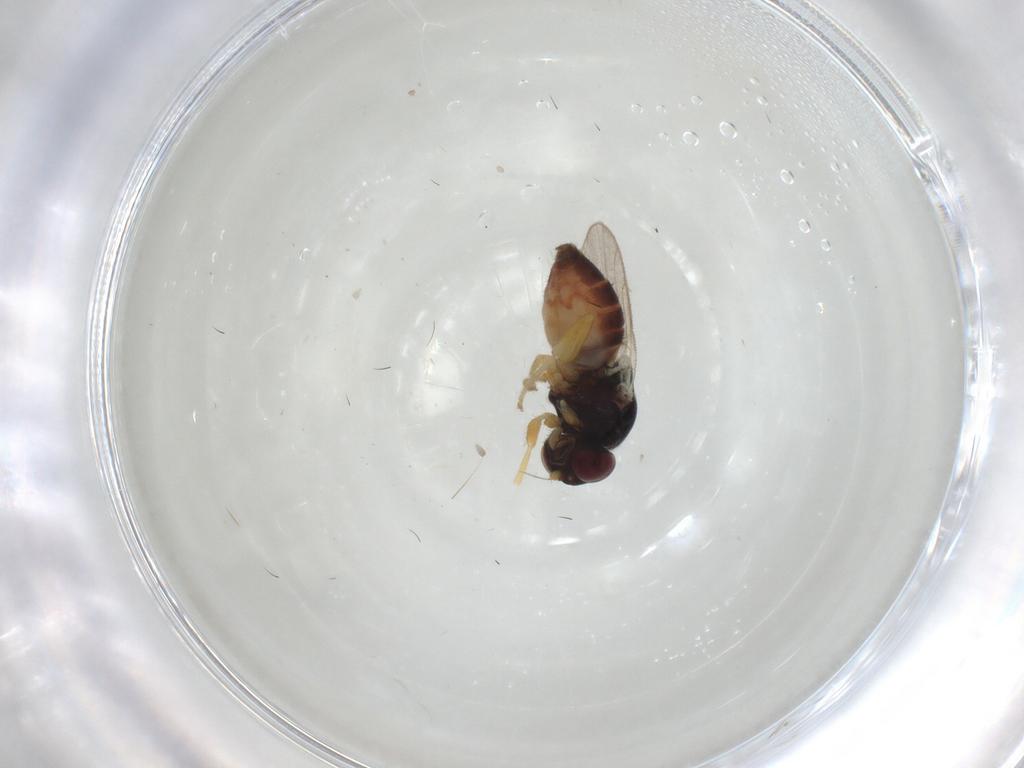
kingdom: Animalia
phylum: Arthropoda
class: Insecta
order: Diptera
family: Chloropidae
